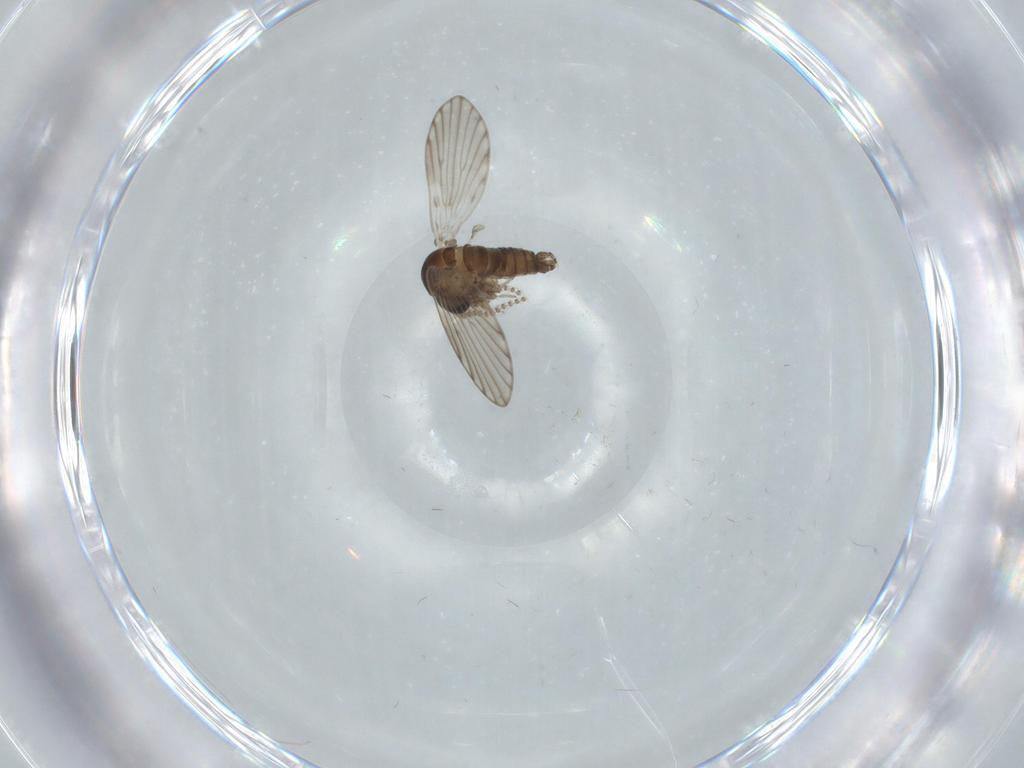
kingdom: Animalia
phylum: Arthropoda
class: Insecta
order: Diptera
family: Psychodidae
